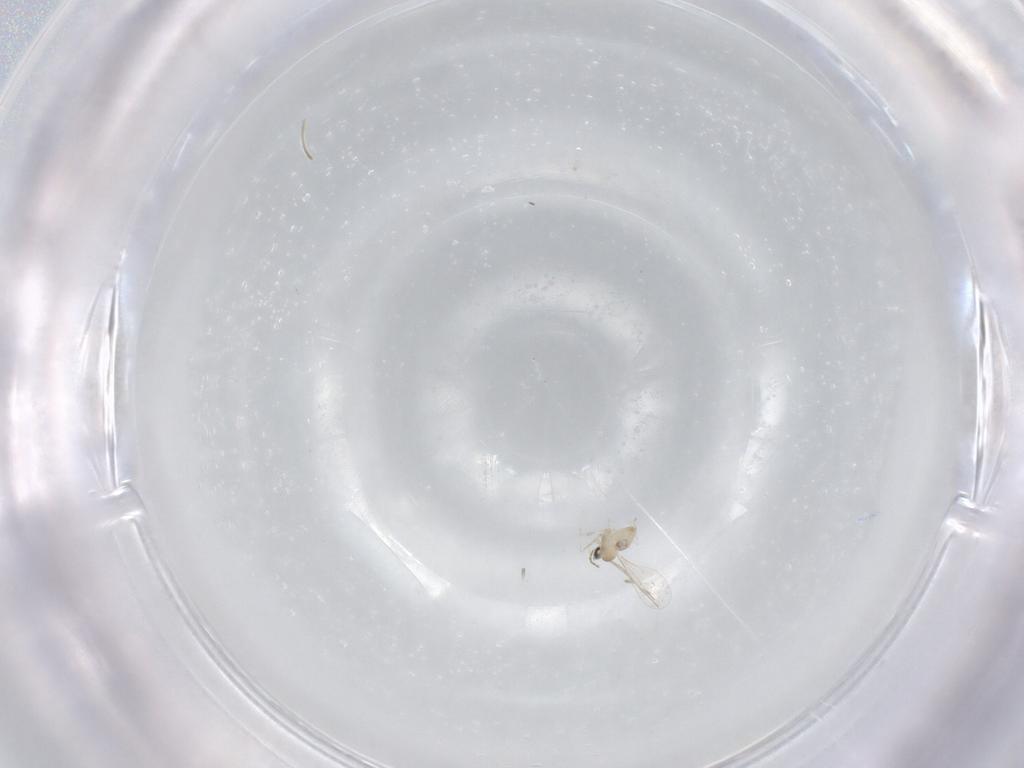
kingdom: Animalia
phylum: Arthropoda
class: Insecta
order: Diptera
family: Cecidomyiidae
